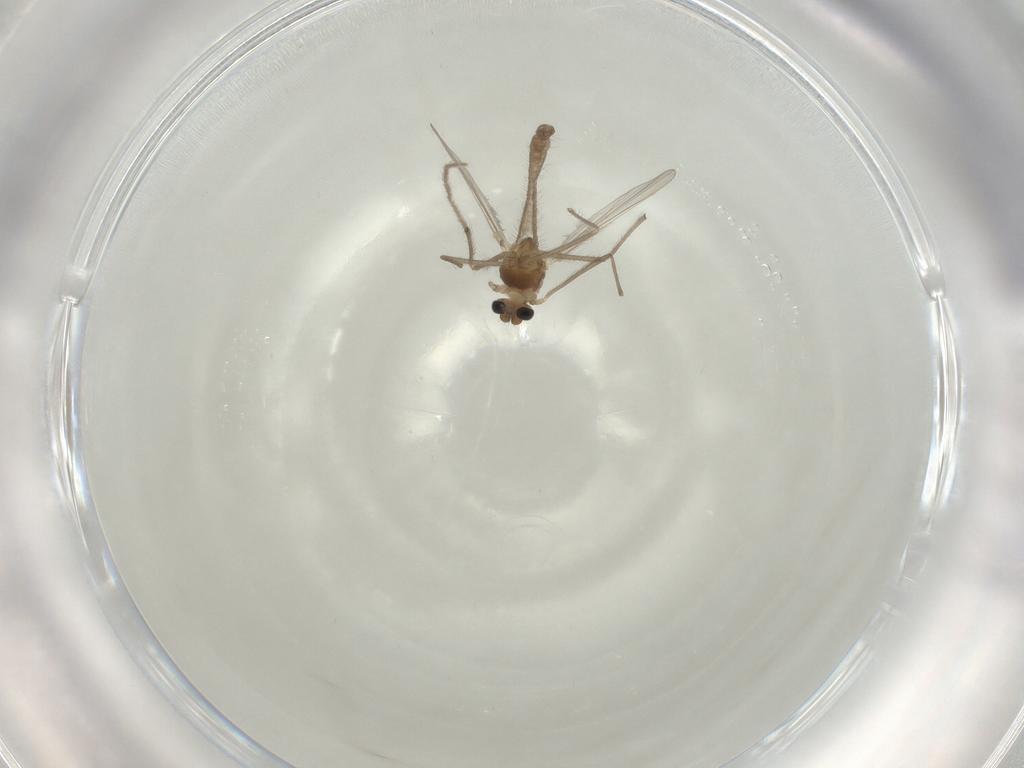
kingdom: Animalia
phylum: Arthropoda
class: Insecta
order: Diptera
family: Chironomidae
